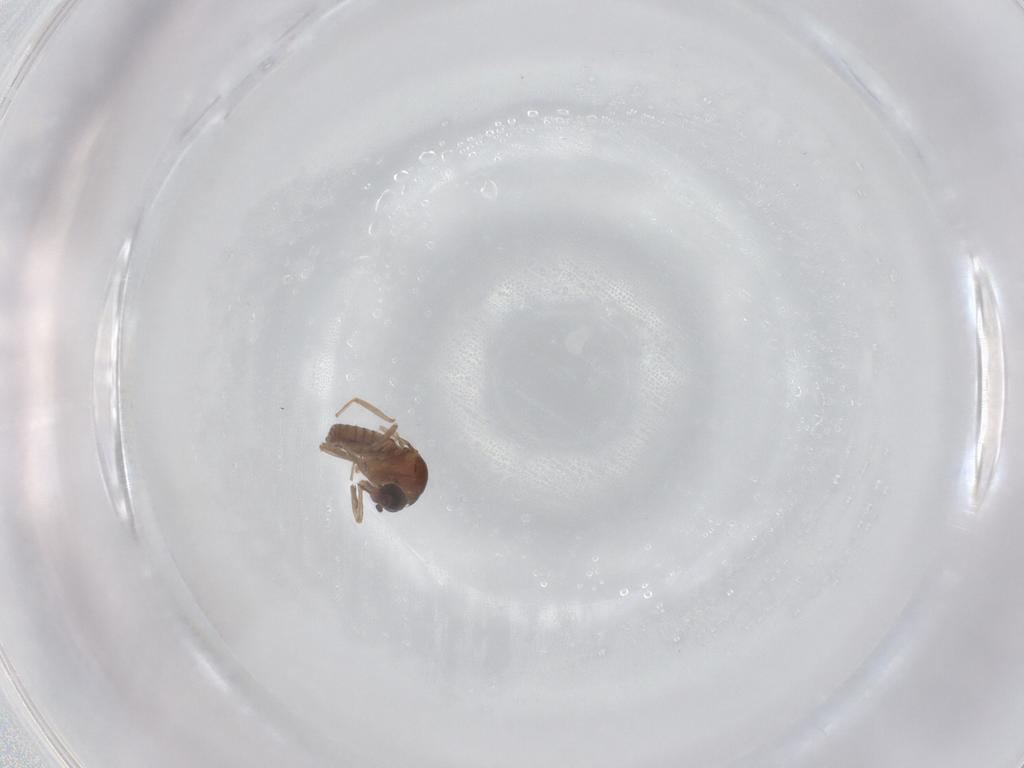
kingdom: Animalia
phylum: Arthropoda
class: Insecta
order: Diptera
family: Ceratopogonidae
